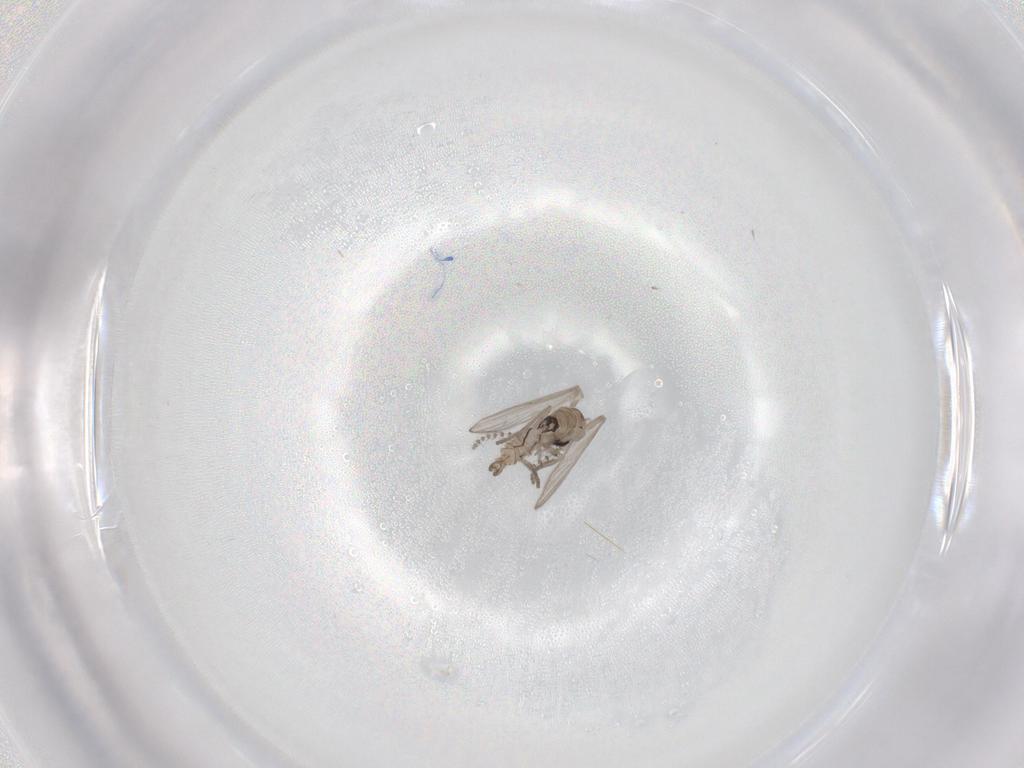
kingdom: Animalia
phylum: Arthropoda
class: Insecta
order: Diptera
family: Psychodidae
